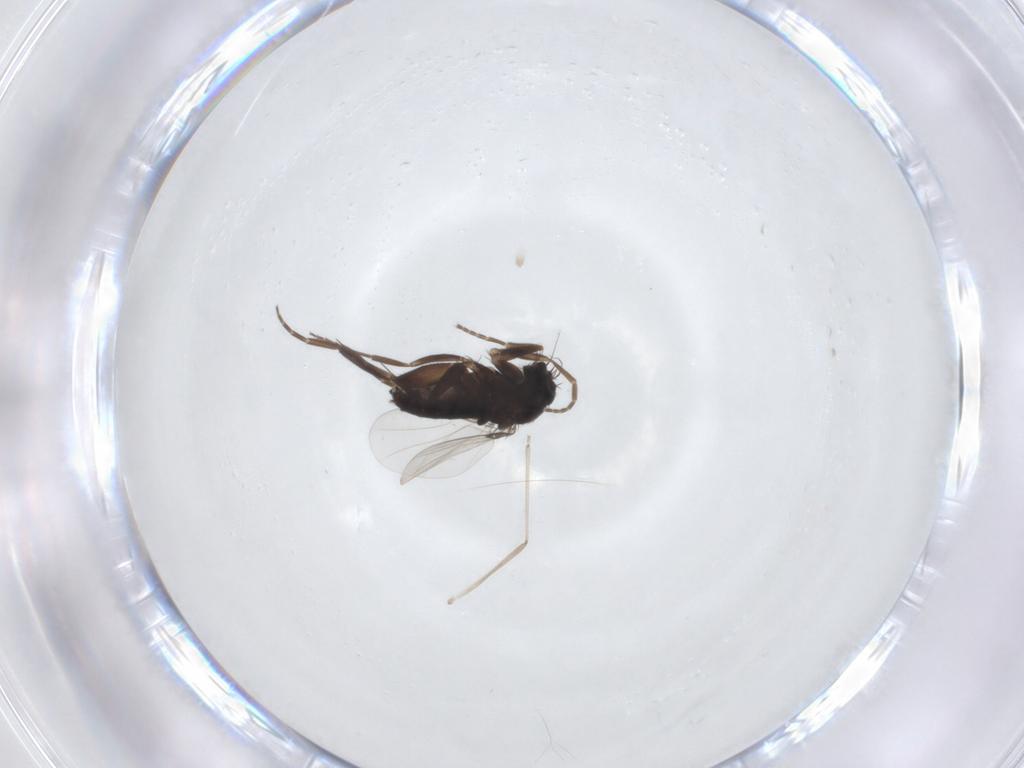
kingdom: Animalia
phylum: Arthropoda
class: Insecta
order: Diptera
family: Phoridae
